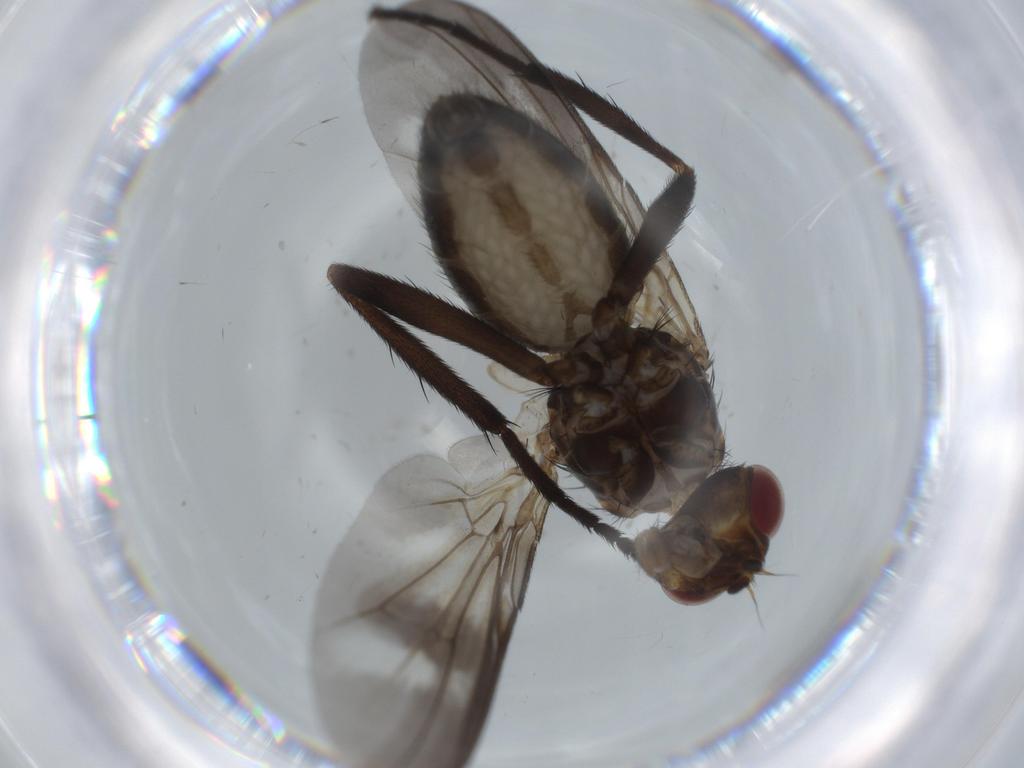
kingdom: Animalia
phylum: Arthropoda
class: Insecta
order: Diptera
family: Calliphoridae
